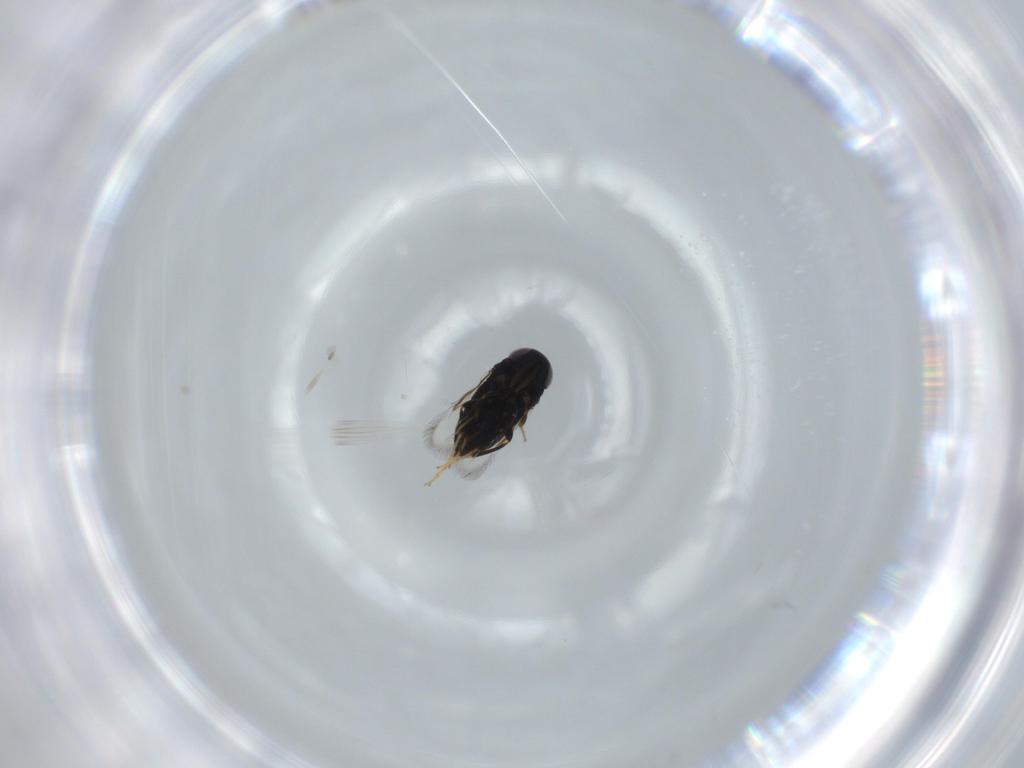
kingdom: Animalia
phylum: Arthropoda
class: Insecta
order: Hymenoptera
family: Signiphoridae
